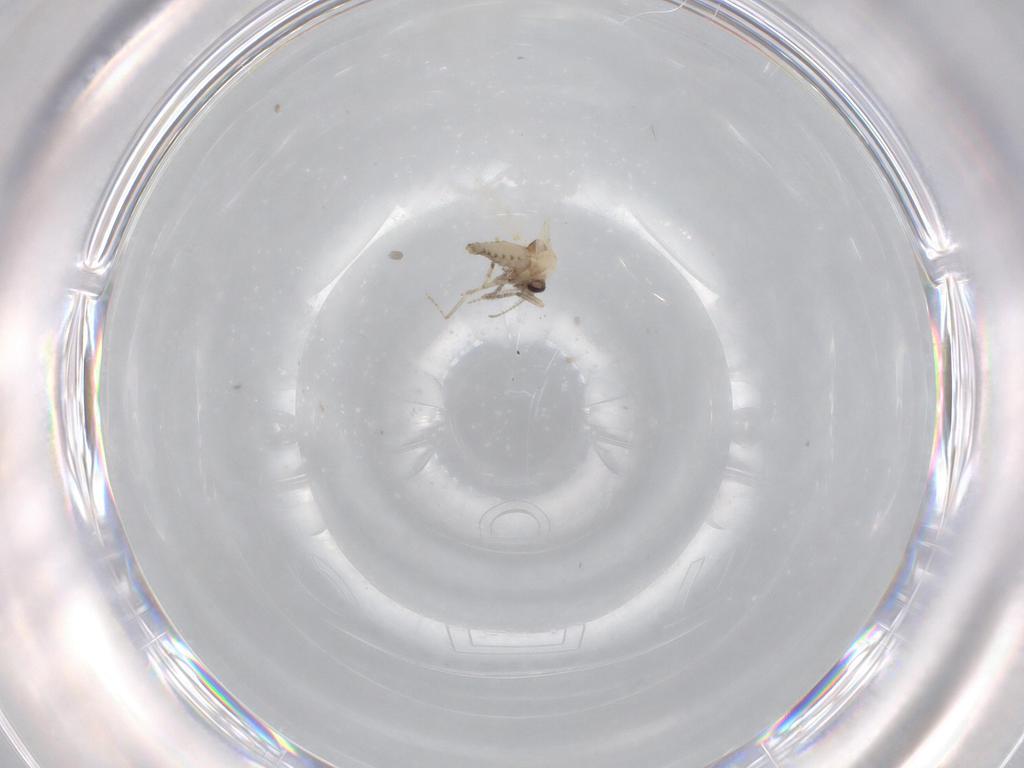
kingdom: Animalia
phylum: Arthropoda
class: Insecta
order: Diptera
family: Ceratopogonidae
